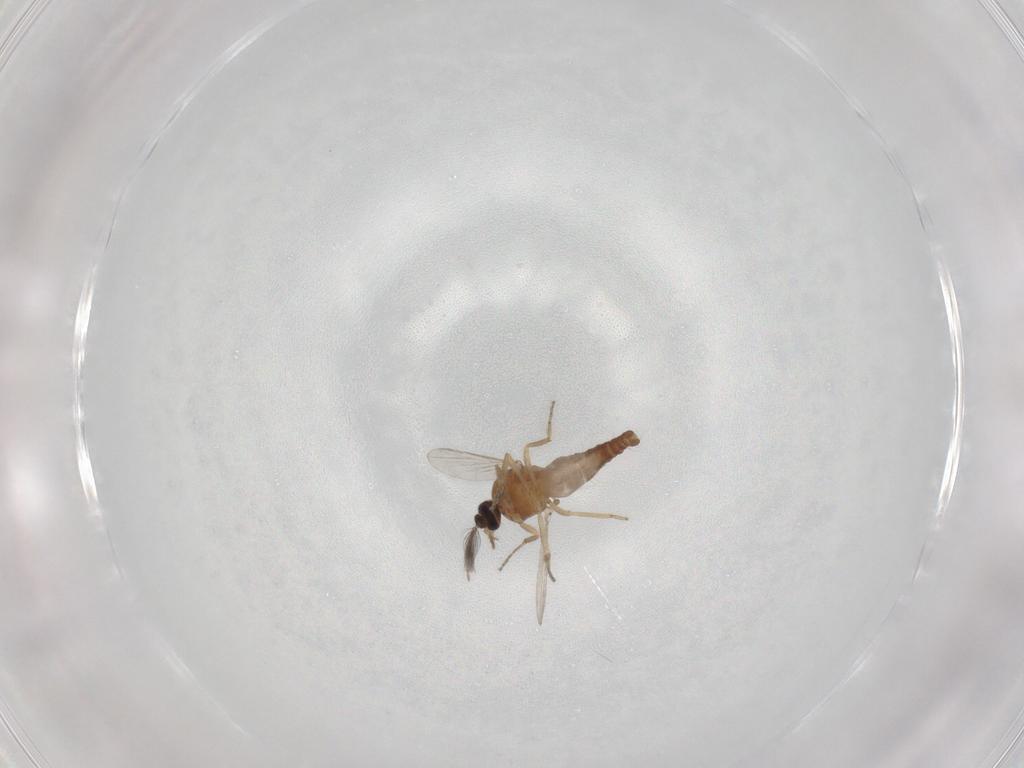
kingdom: Animalia
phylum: Arthropoda
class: Insecta
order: Diptera
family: Ceratopogonidae
